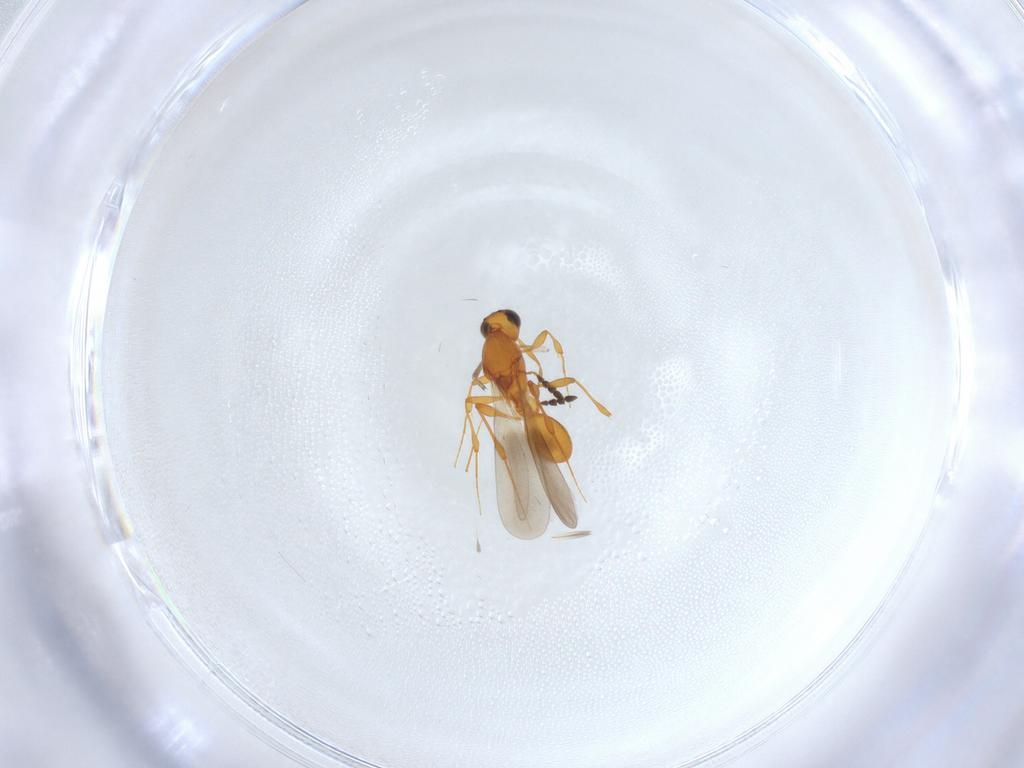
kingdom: Animalia
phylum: Arthropoda
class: Insecta
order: Hymenoptera
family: Platygastridae
